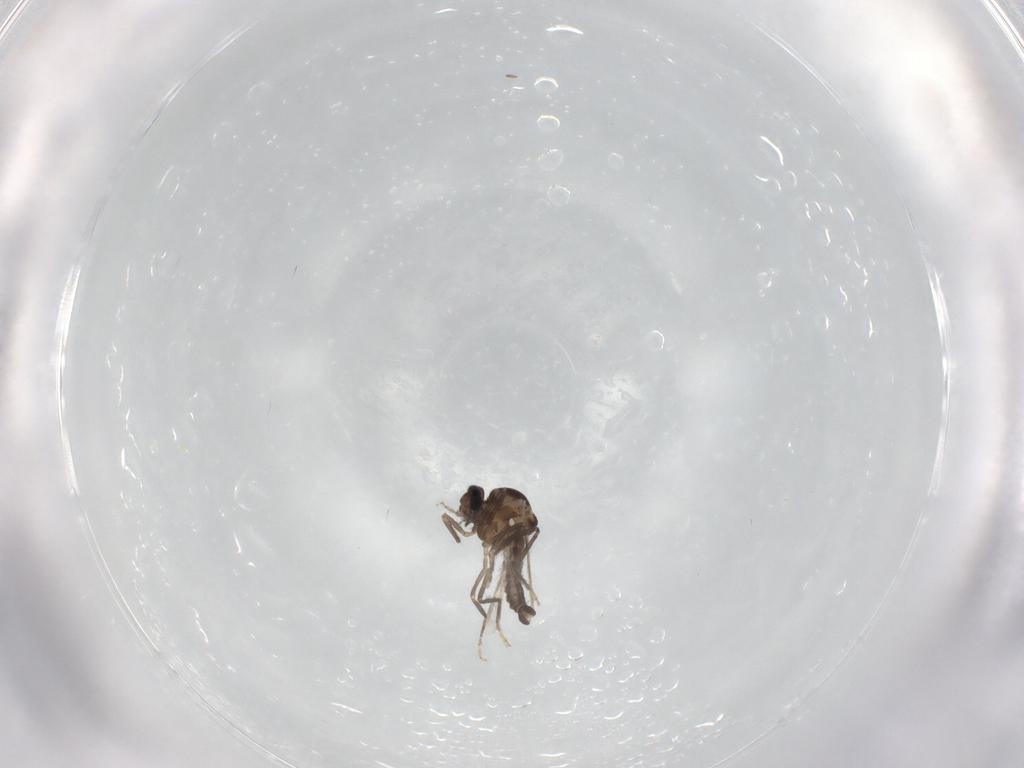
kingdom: Animalia
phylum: Arthropoda
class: Insecta
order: Diptera
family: Ceratopogonidae
